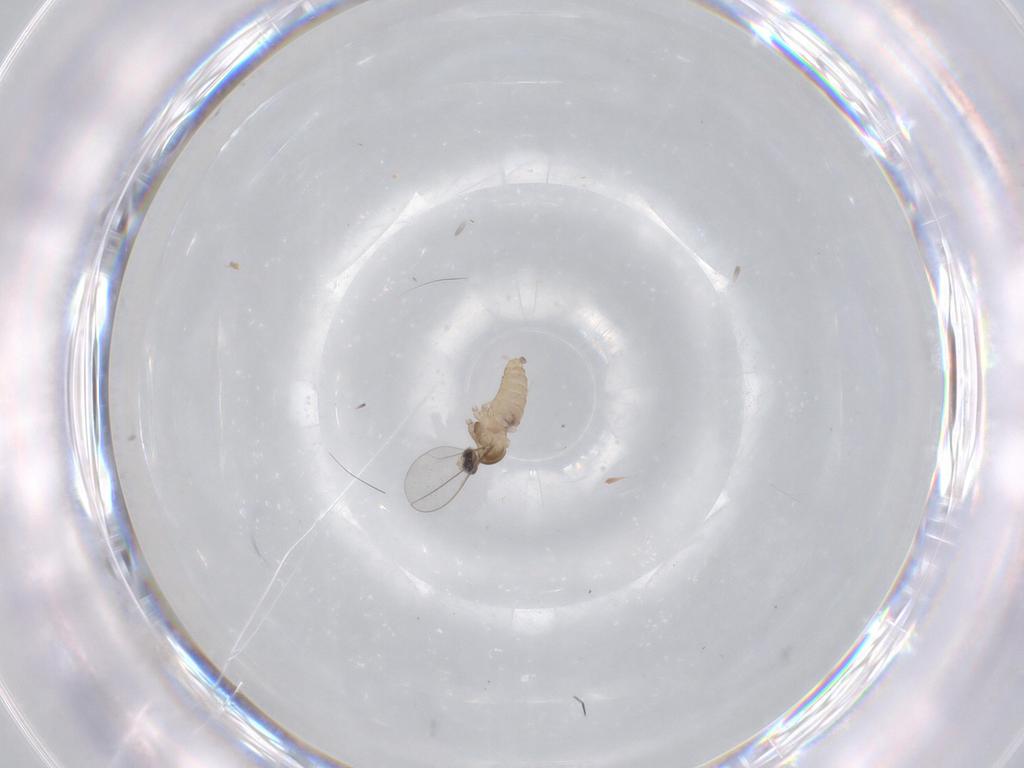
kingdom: Animalia
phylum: Arthropoda
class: Insecta
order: Diptera
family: Cecidomyiidae
